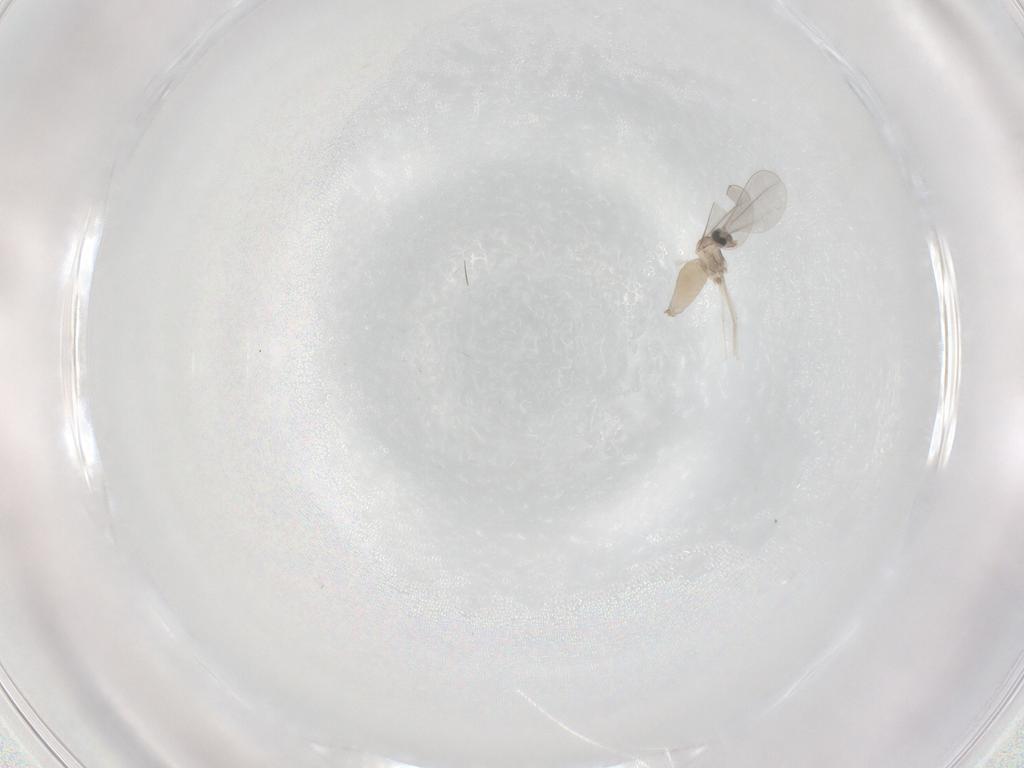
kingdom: Animalia
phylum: Arthropoda
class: Insecta
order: Diptera
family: Cecidomyiidae
